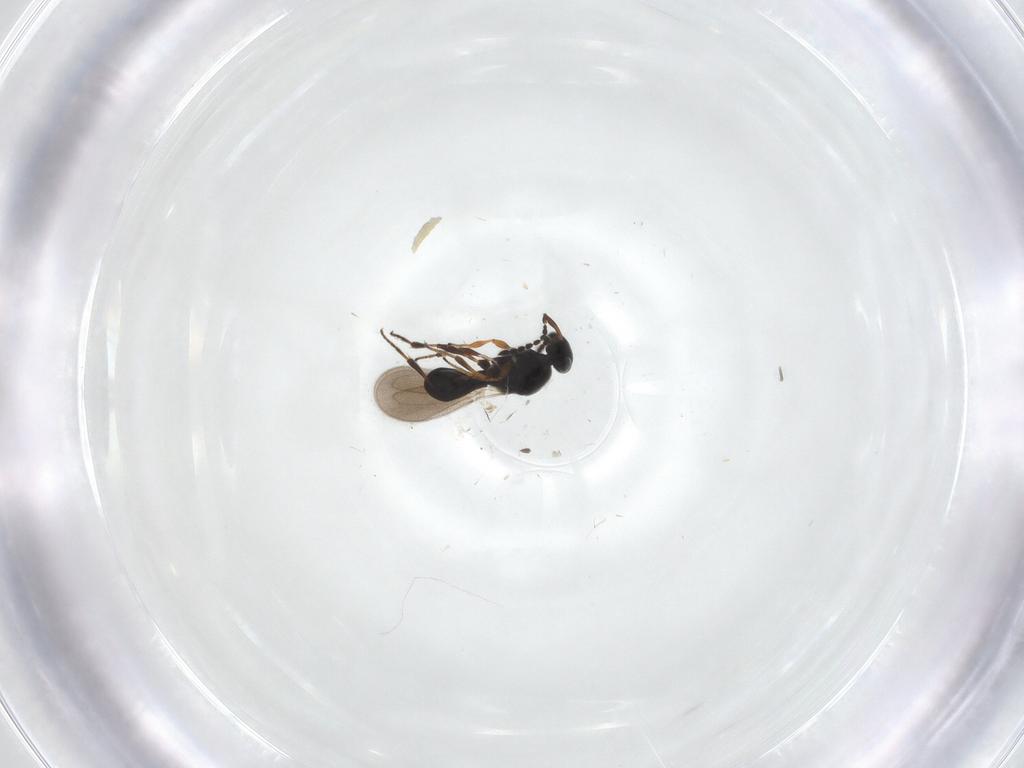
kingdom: Animalia
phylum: Arthropoda
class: Insecta
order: Hymenoptera
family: Platygastridae
